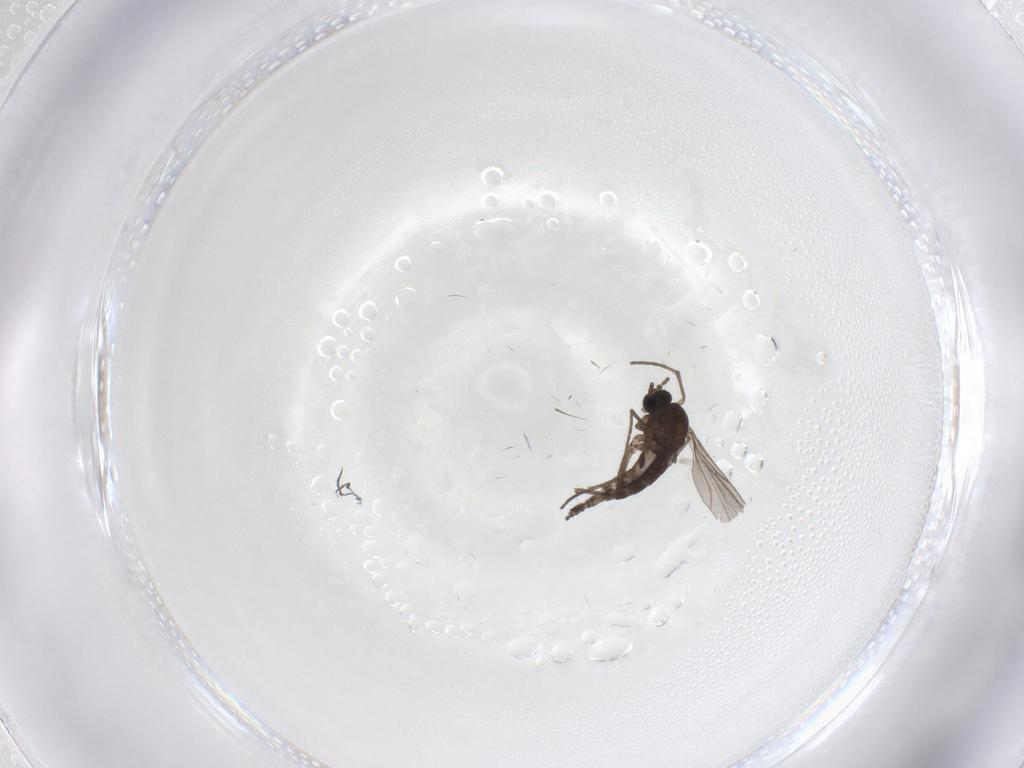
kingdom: Animalia
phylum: Arthropoda
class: Insecta
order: Diptera
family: Sciaridae
